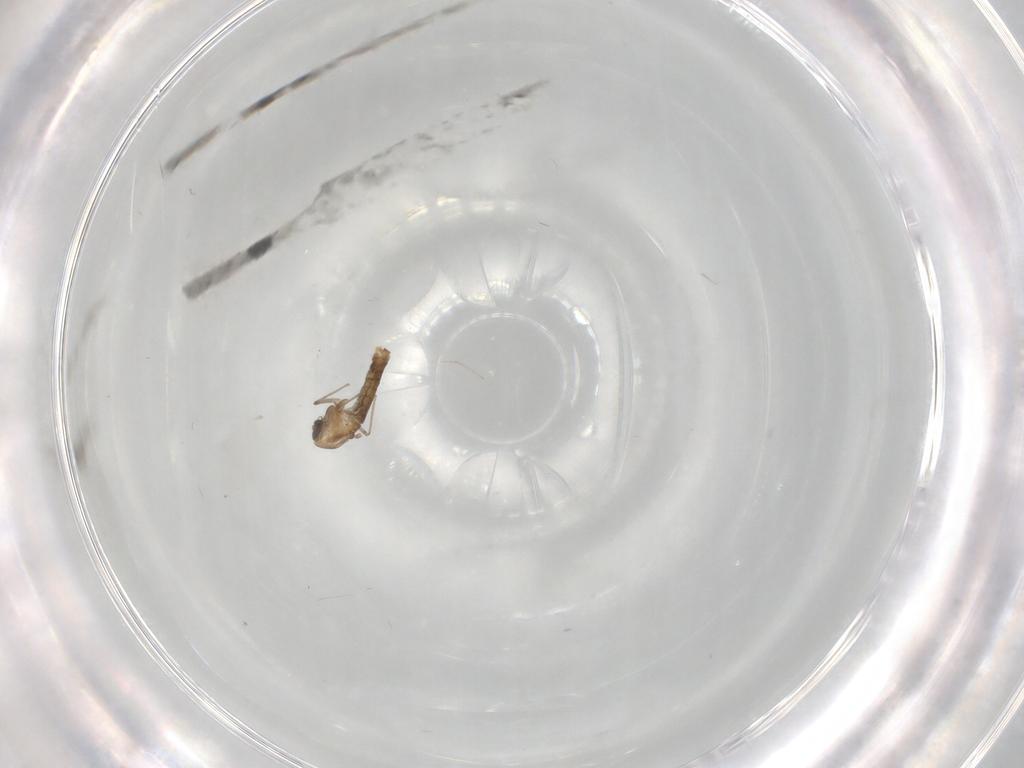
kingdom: Animalia
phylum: Arthropoda
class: Insecta
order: Diptera
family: Chironomidae
